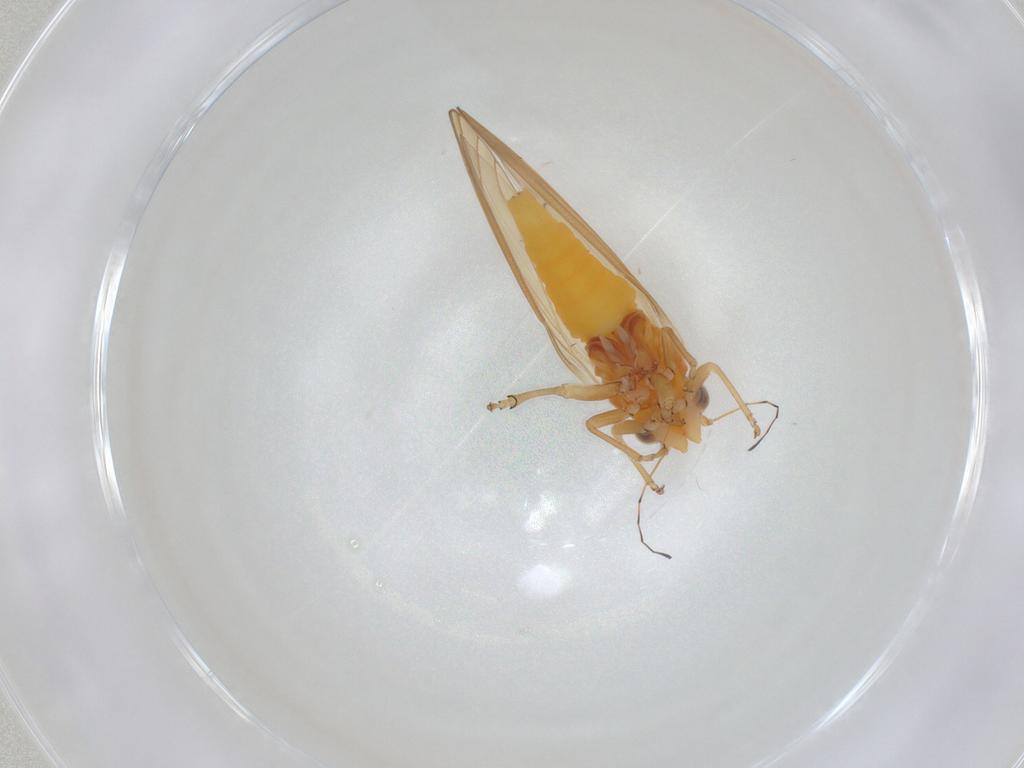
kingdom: Animalia
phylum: Arthropoda
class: Insecta
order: Hemiptera
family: Psylloidea_incertae_sedis
